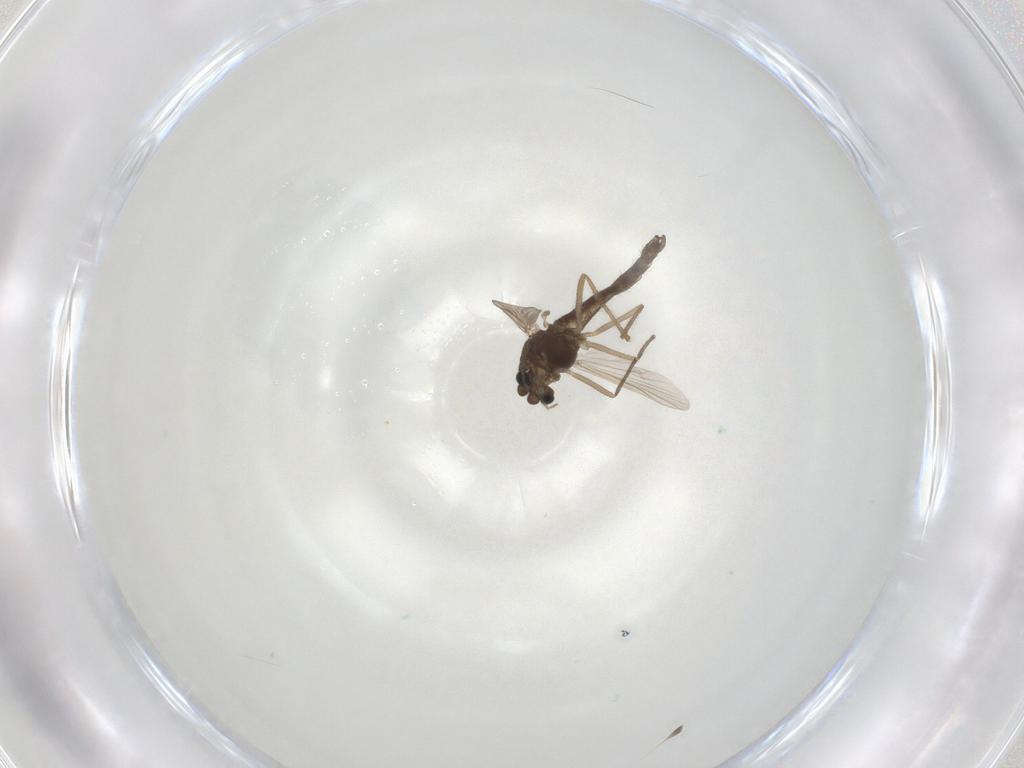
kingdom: Animalia
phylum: Arthropoda
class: Insecta
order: Diptera
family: Chironomidae
